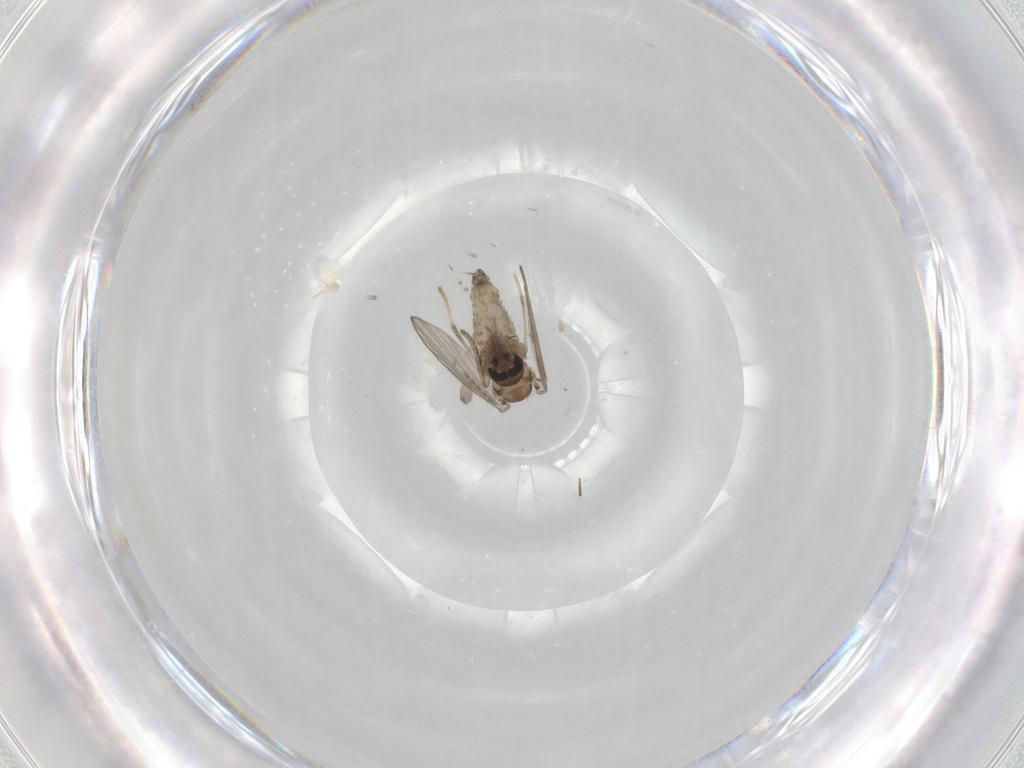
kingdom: Animalia
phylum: Arthropoda
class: Insecta
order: Diptera
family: Psychodidae
